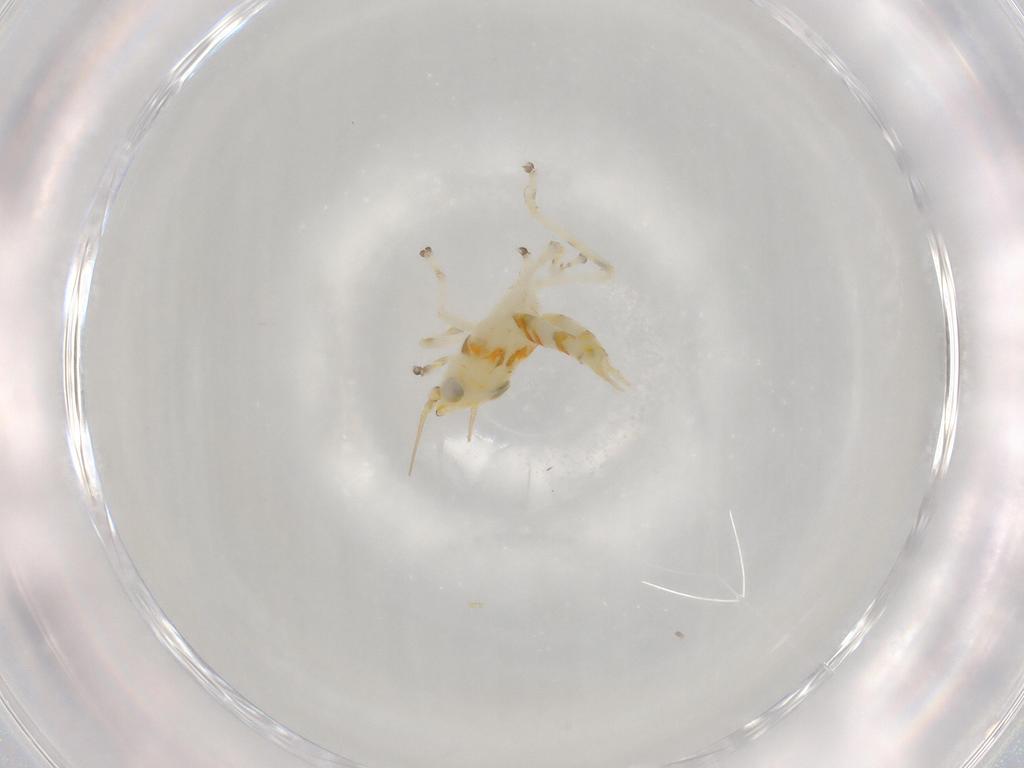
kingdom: Animalia
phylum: Arthropoda
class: Insecta
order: Hemiptera
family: Cicadellidae
